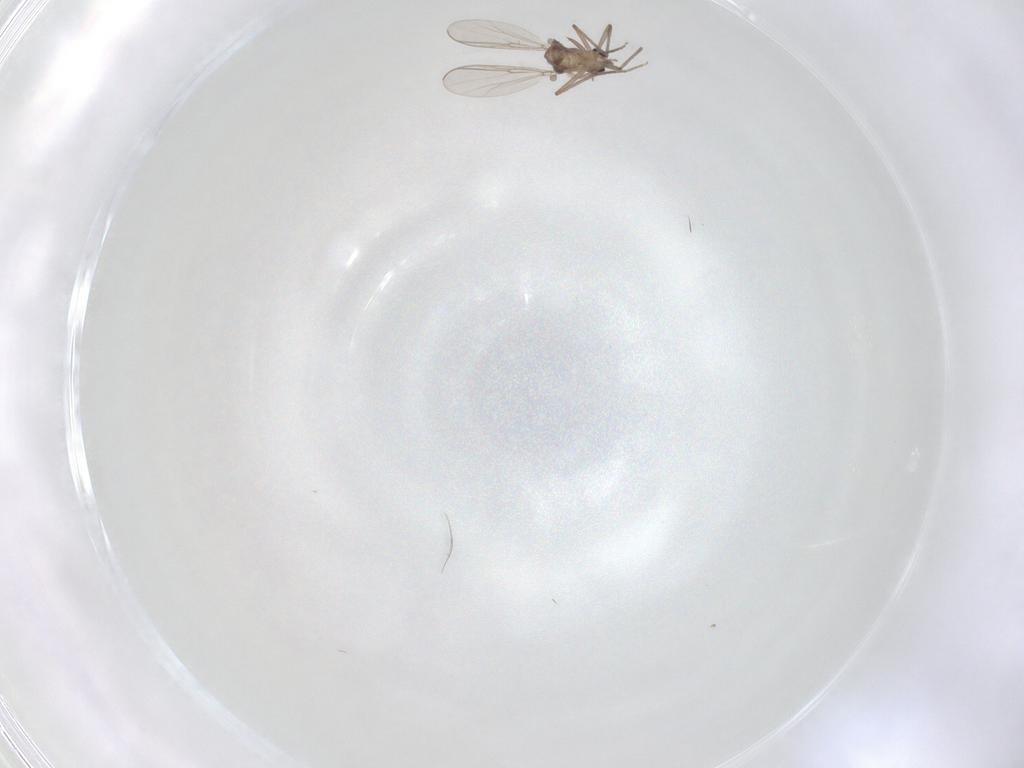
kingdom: Animalia
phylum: Arthropoda
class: Insecta
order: Diptera
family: Chironomidae
